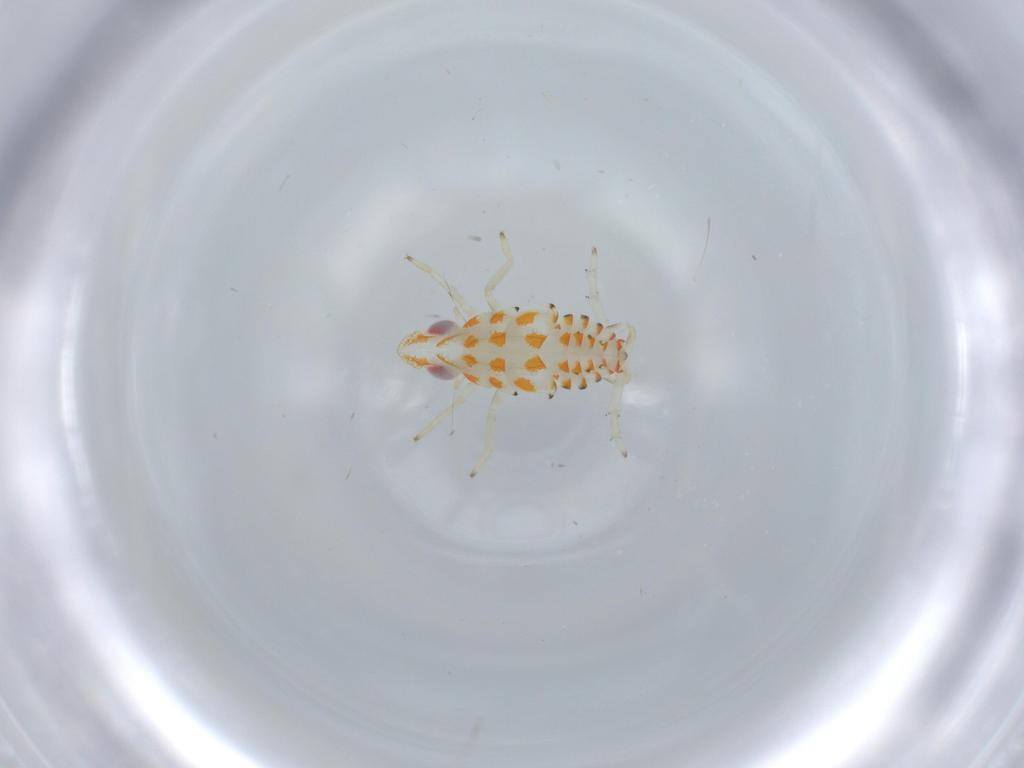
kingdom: Animalia
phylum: Arthropoda
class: Insecta
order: Hemiptera
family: Tropiduchidae
